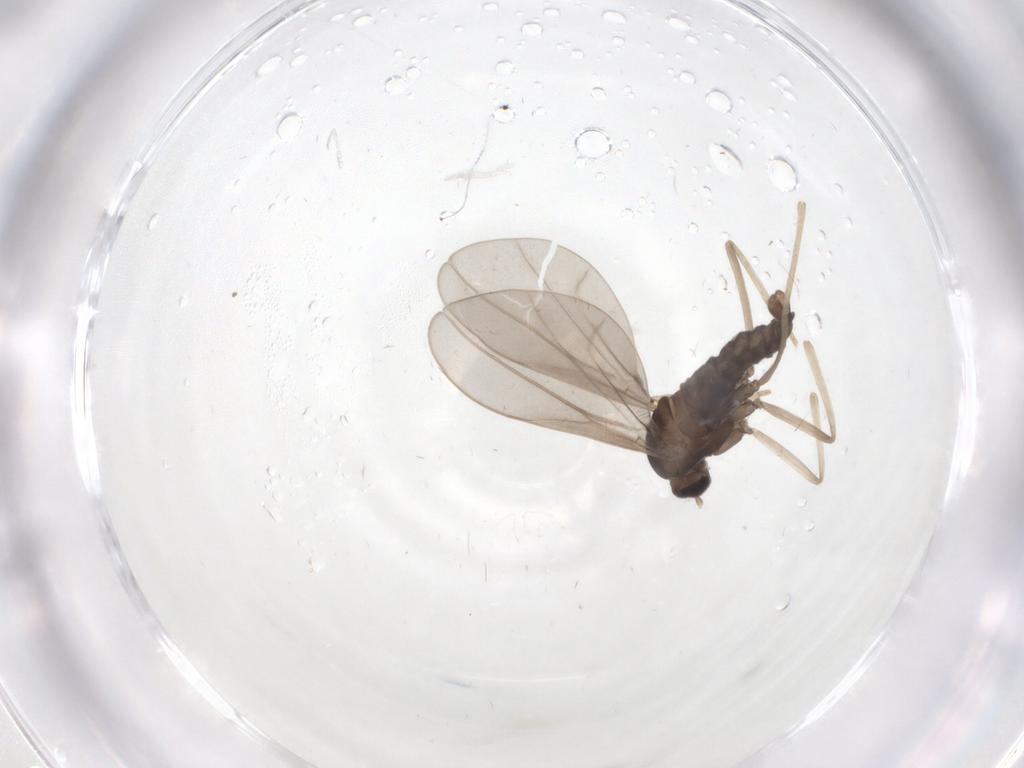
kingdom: Animalia
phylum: Arthropoda
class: Insecta
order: Diptera
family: Cecidomyiidae
